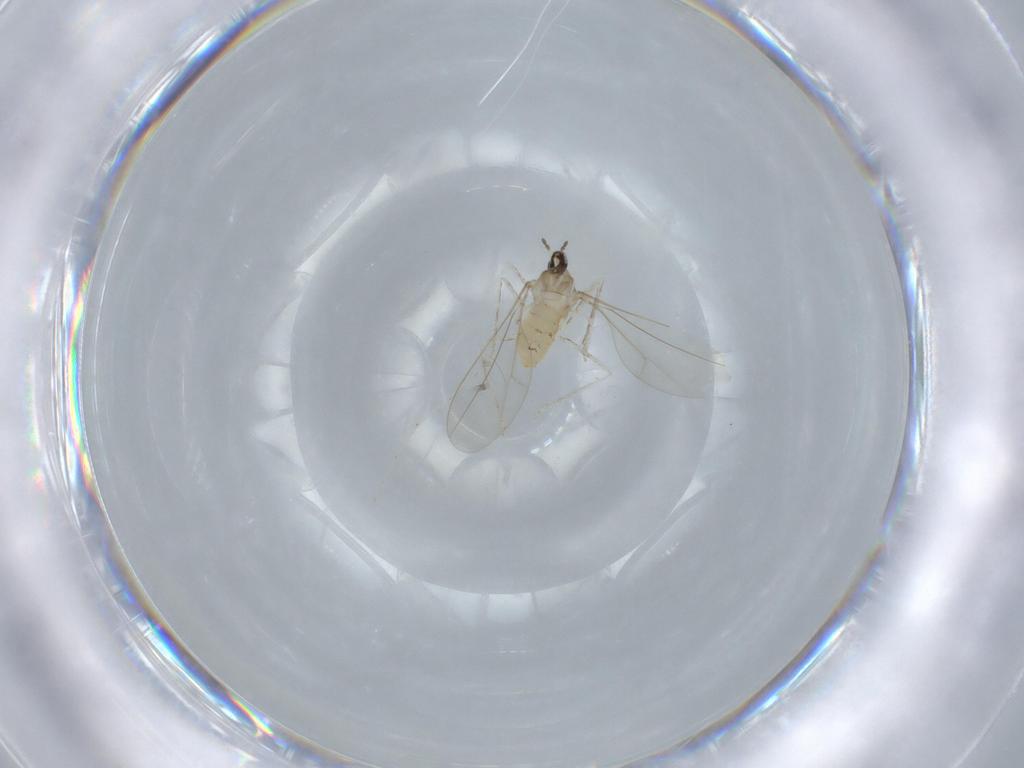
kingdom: Animalia
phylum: Arthropoda
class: Insecta
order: Diptera
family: Cecidomyiidae
